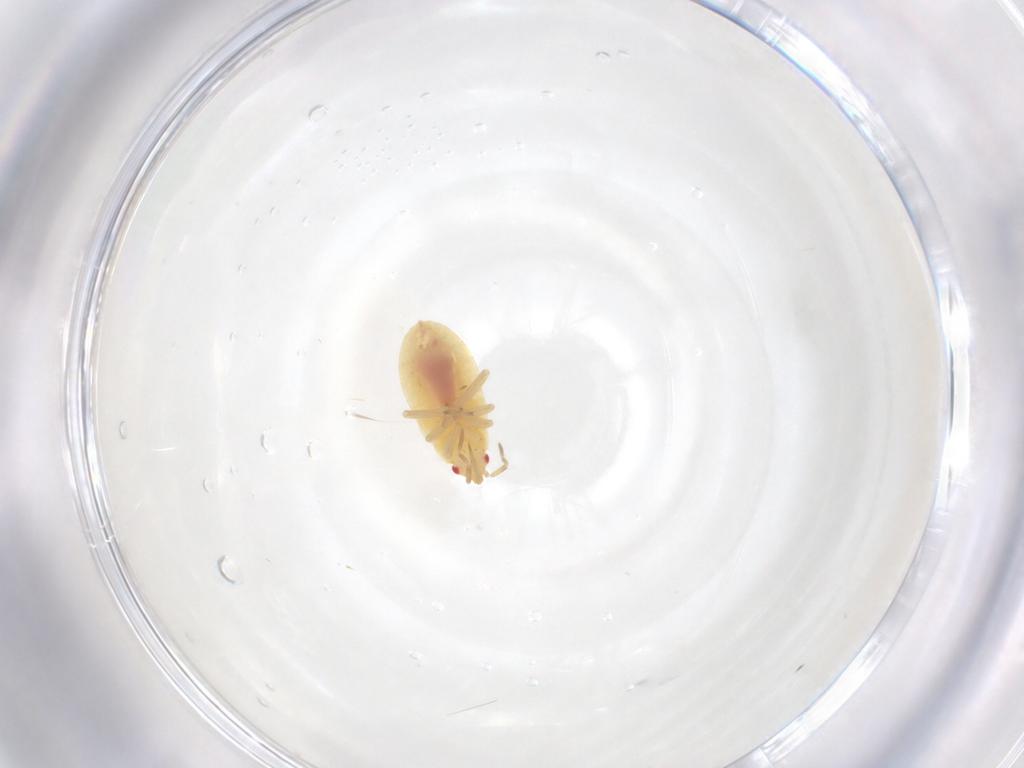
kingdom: Animalia
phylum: Arthropoda
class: Insecta
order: Hemiptera
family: Anthocoridae
